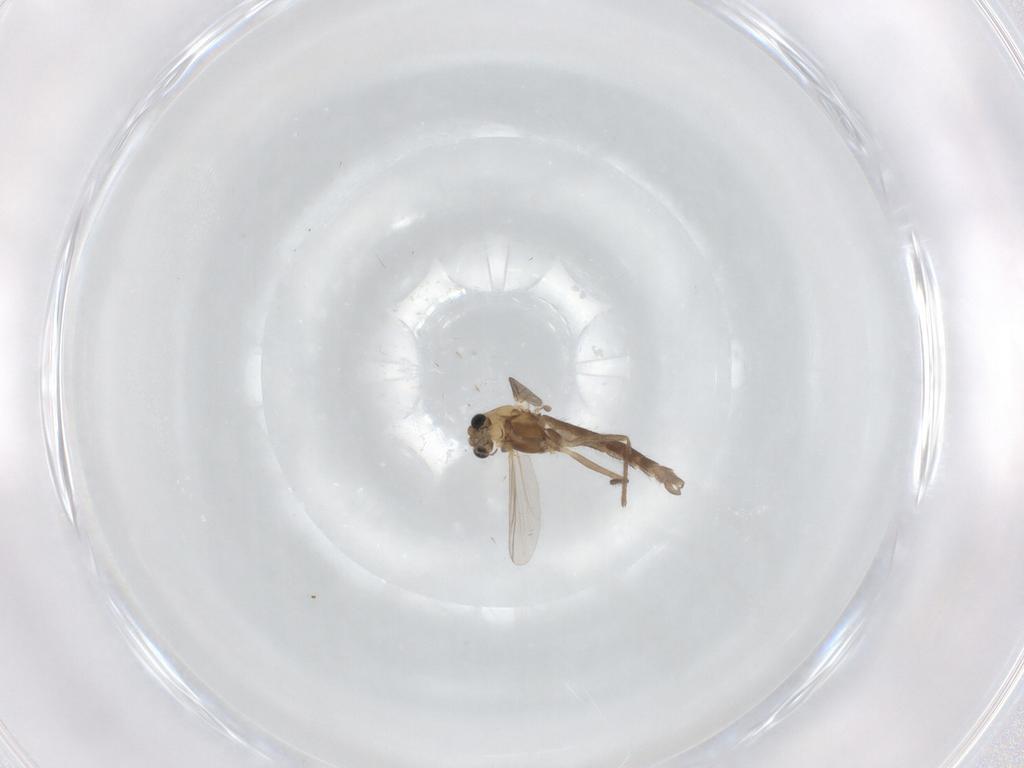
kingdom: Animalia
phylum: Arthropoda
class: Insecta
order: Diptera
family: Chironomidae
